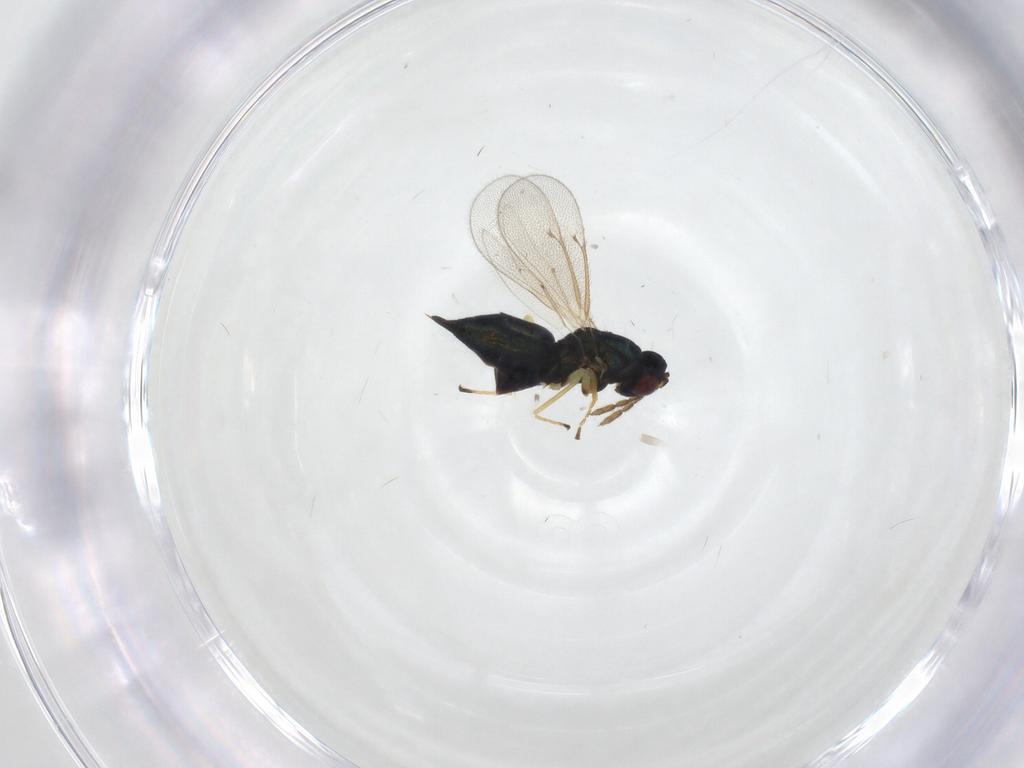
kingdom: Animalia
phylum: Arthropoda
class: Insecta
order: Hymenoptera
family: Eulophidae
